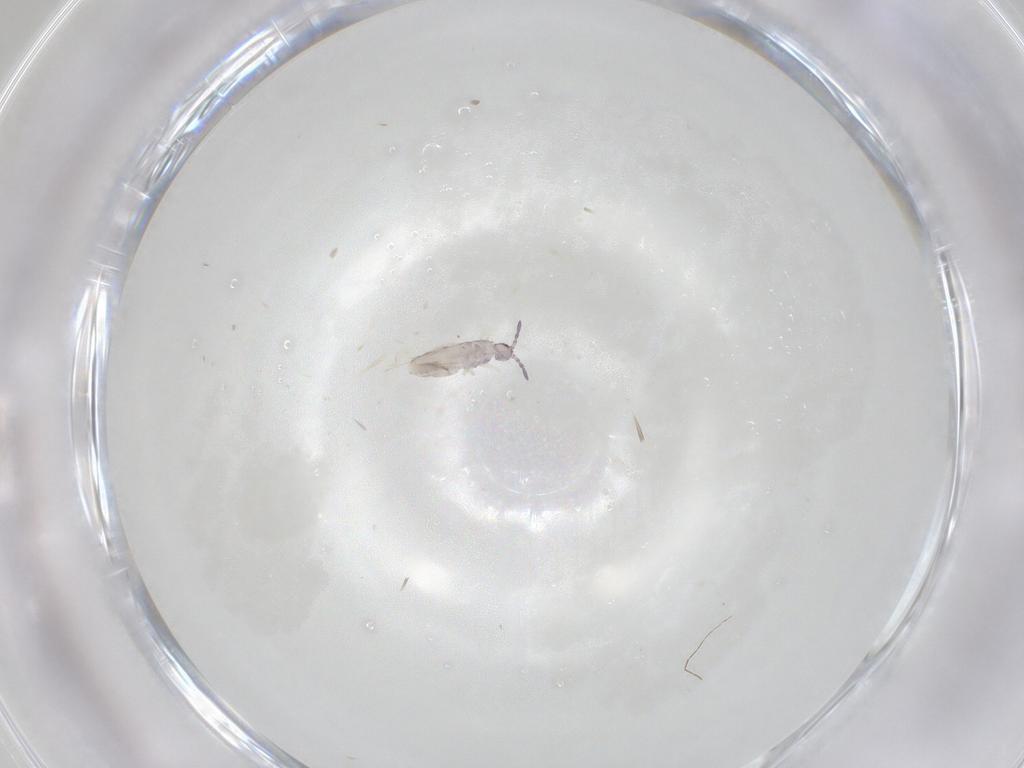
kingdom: Animalia
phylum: Arthropoda
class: Collembola
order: Entomobryomorpha
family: Entomobryidae
